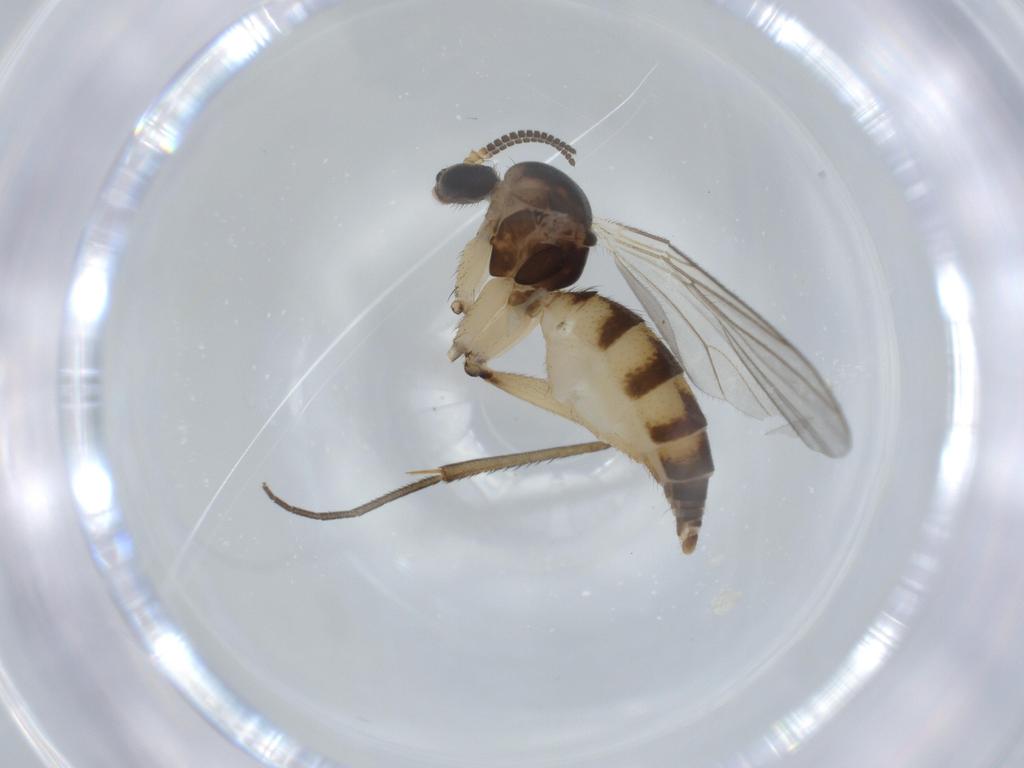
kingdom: Animalia
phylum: Arthropoda
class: Insecta
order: Diptera
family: Mycetophilidae
